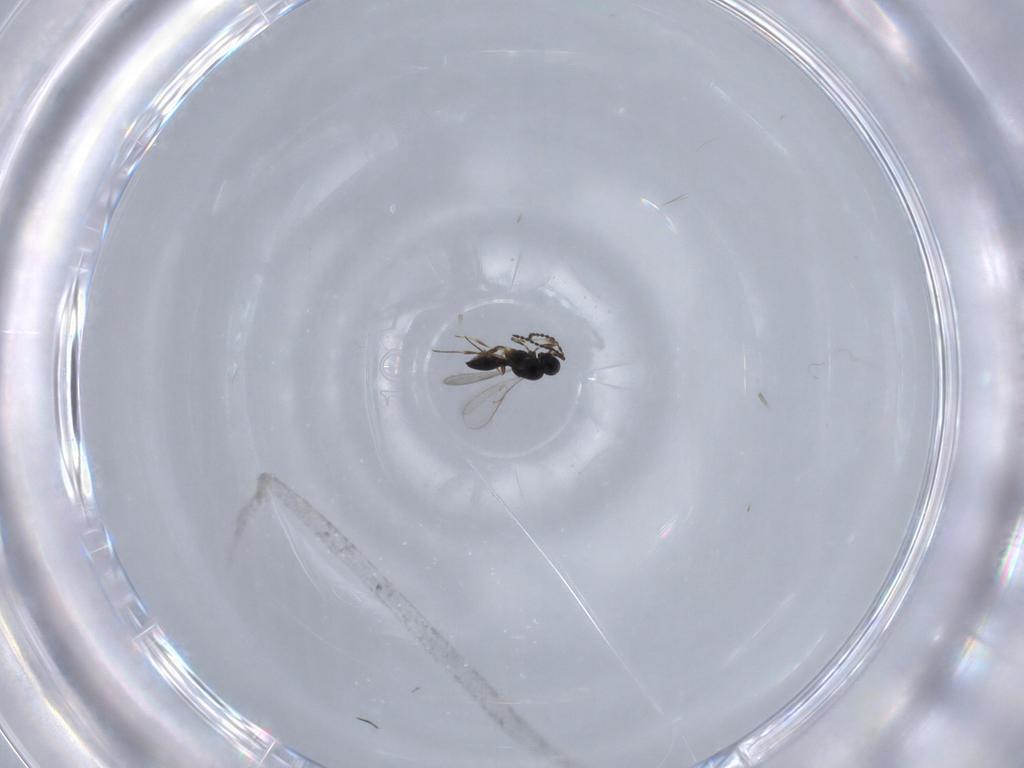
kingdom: Animalia
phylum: Arthropoda
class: Insecta
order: Hymenoptera
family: Scelionidae
